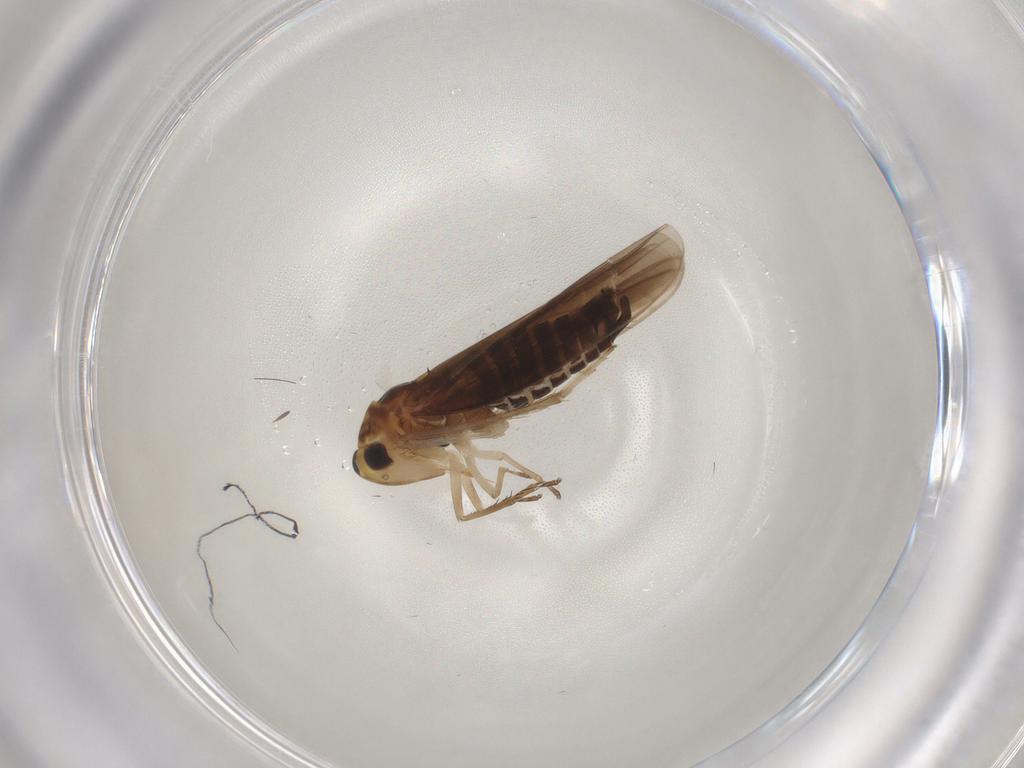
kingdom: Animalia
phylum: Arthropoda
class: Insecta
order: Hemiptera
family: Cicadellidae
